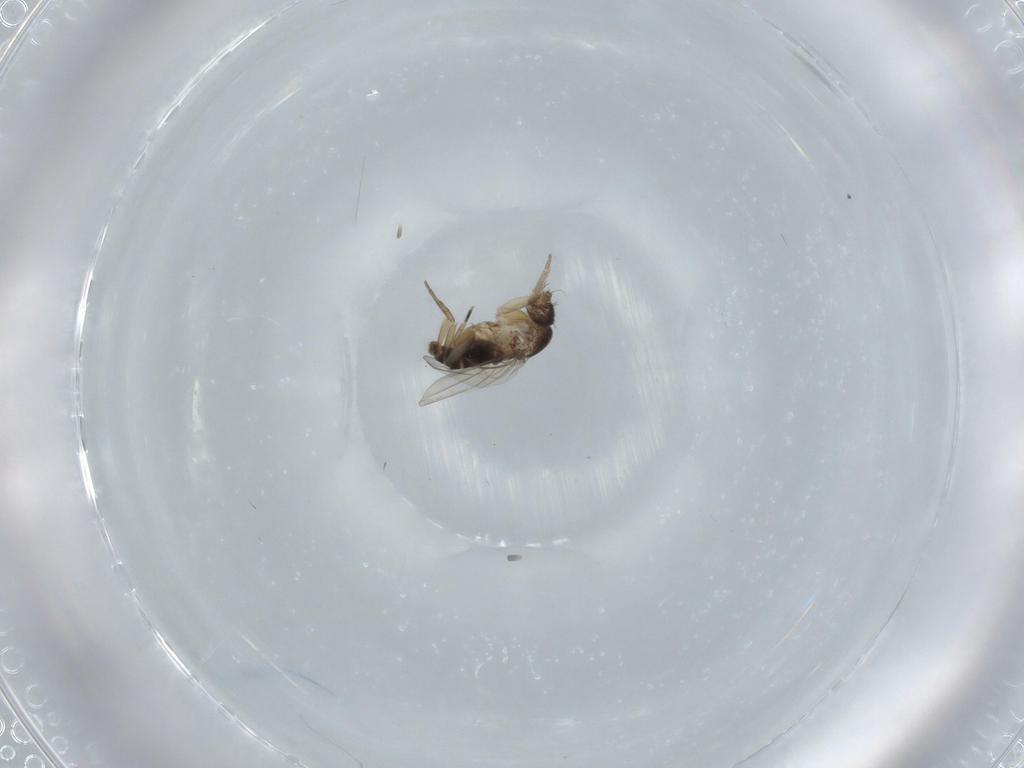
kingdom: Animalia
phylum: Arthropoda
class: Insecta
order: Diptera
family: Phoridae
